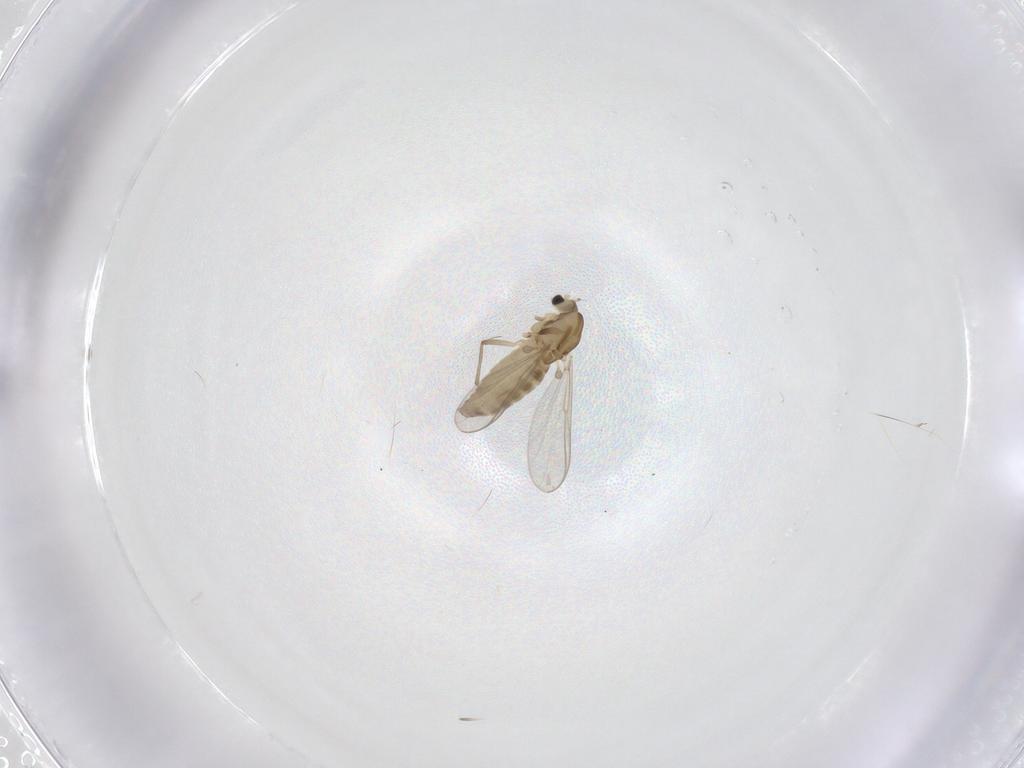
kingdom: Animalia
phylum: Arthropoda
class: Insecta
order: Diptera
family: Chironomidae
